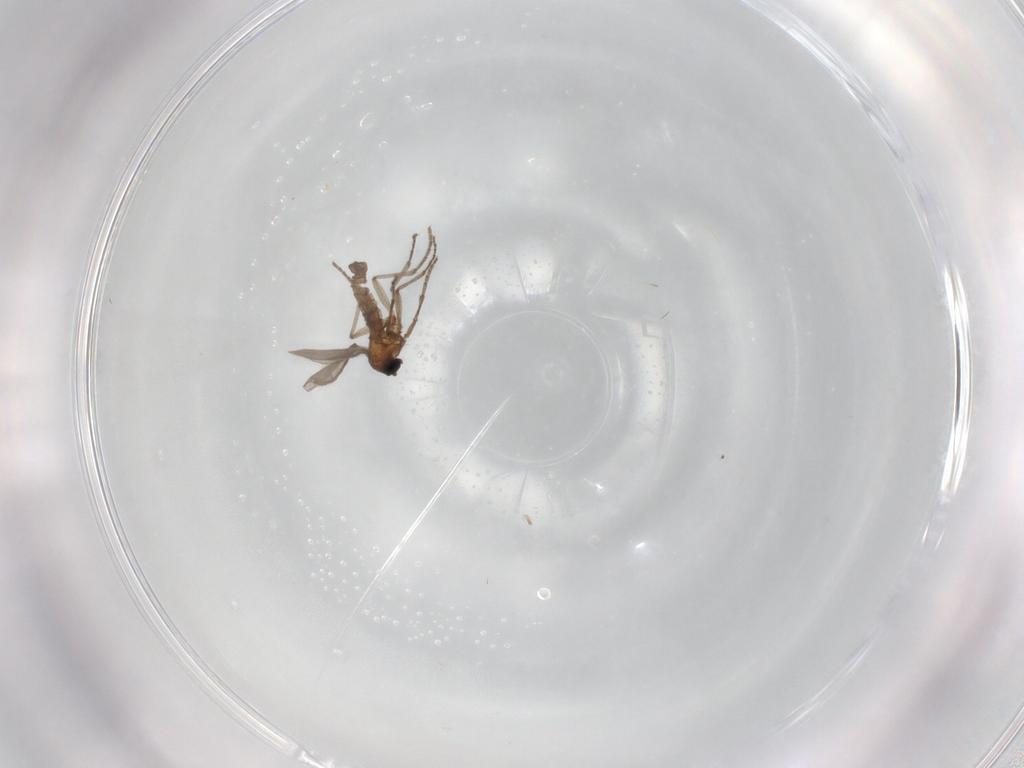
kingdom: Animalia
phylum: Arthropoda
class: Insecta
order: Diptera
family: Sciaridae
